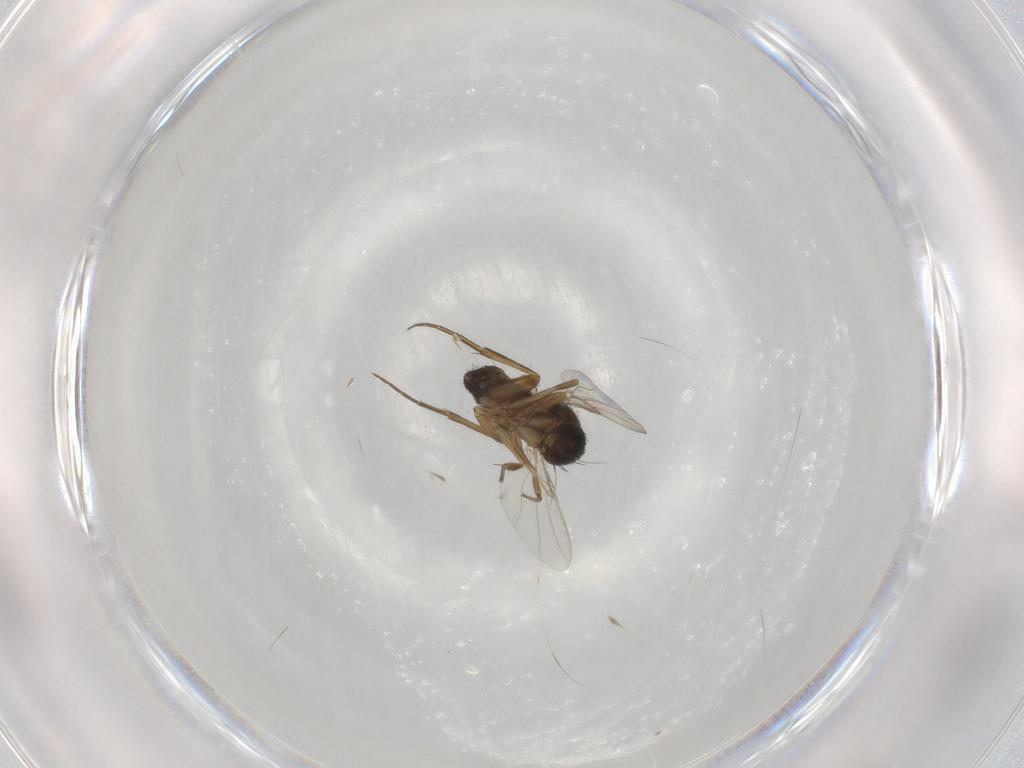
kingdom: Animalia
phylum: Arthropoda
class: Insecta
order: Diptera
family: Phoridae
